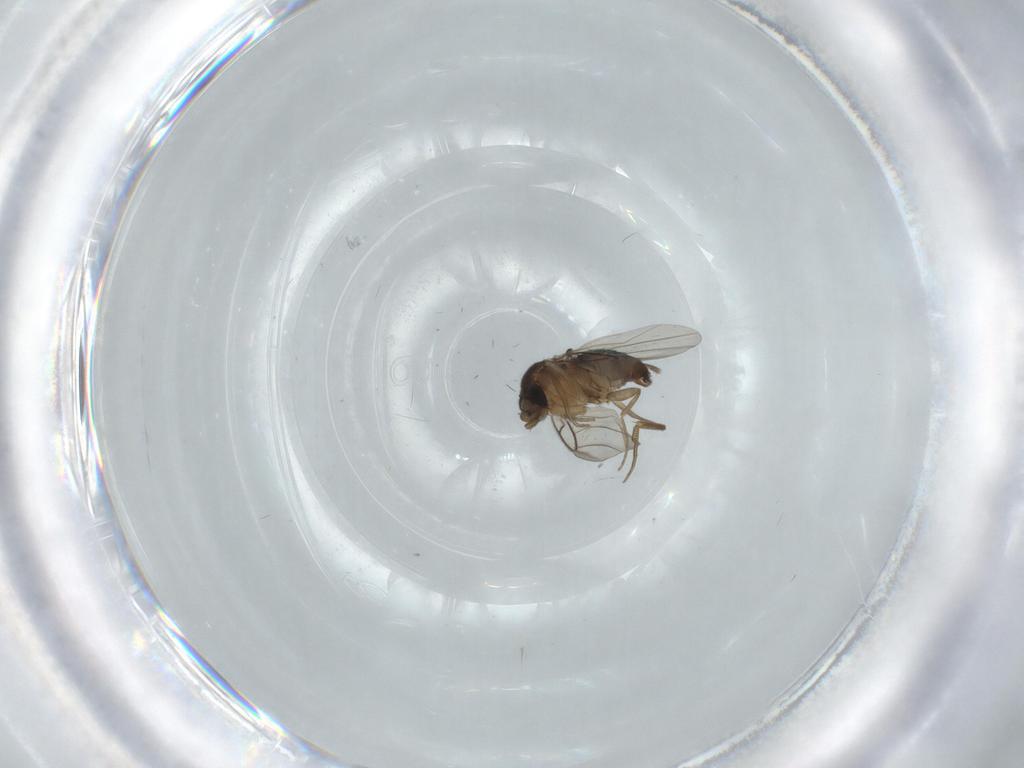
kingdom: Animalia
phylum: Arthropoda
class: Insecta
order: Diptera
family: Phoridae
